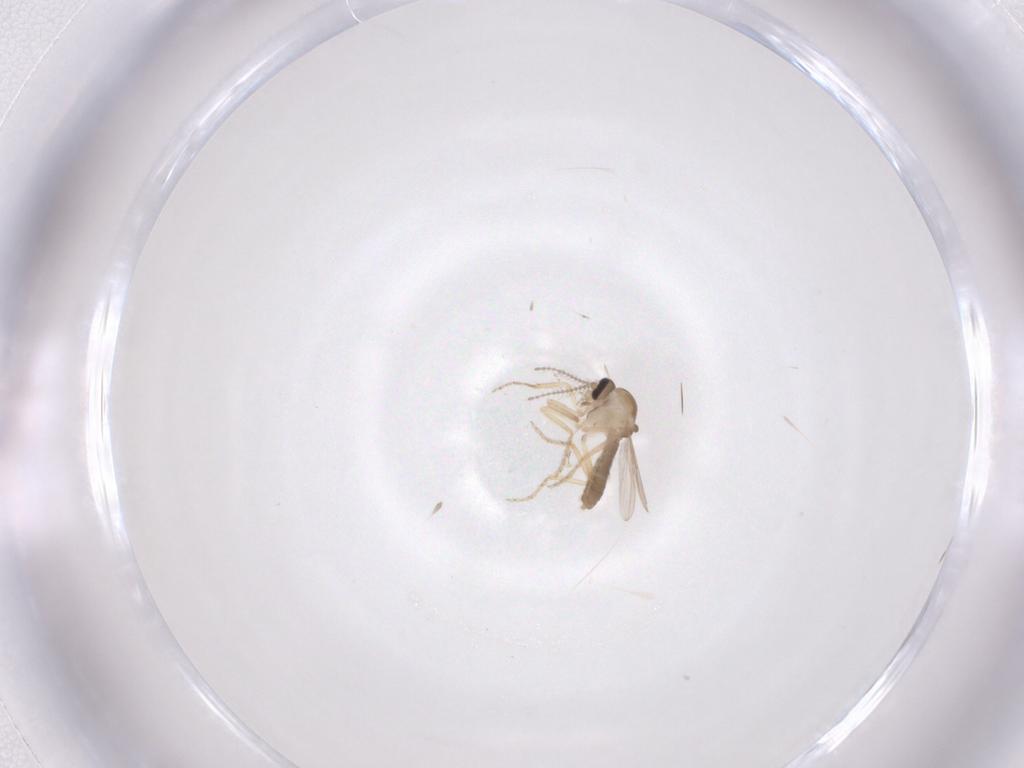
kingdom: Animalia
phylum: Arthropoda
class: Insecta
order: Diptera
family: Ceratopogonidae
